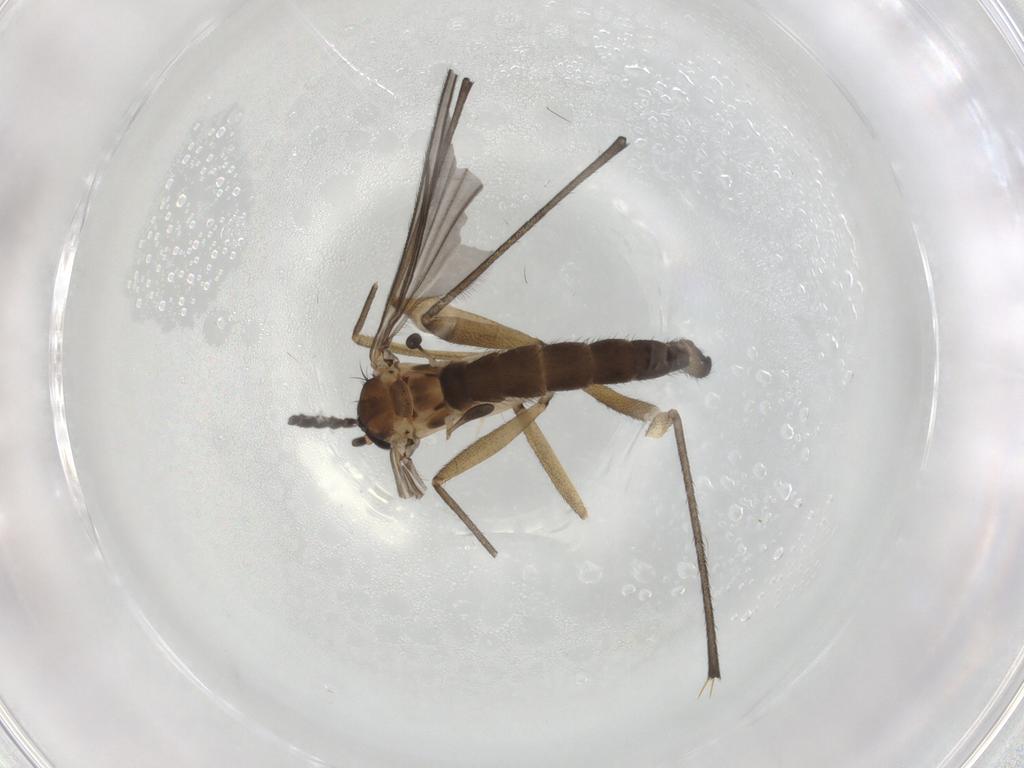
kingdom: Animalia
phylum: Arthropoda
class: Insecta
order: Diptera
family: Sciaridae
